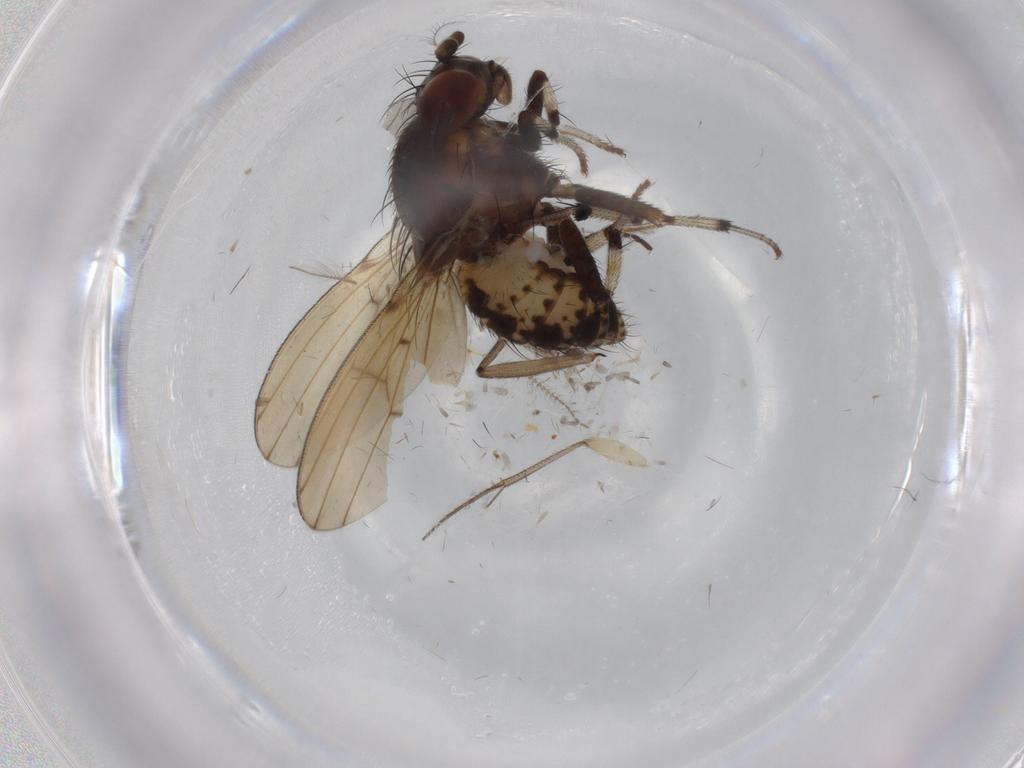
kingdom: Animalia
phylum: Arthropoda
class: Insecta
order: Diptera
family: Mycetophilidae
